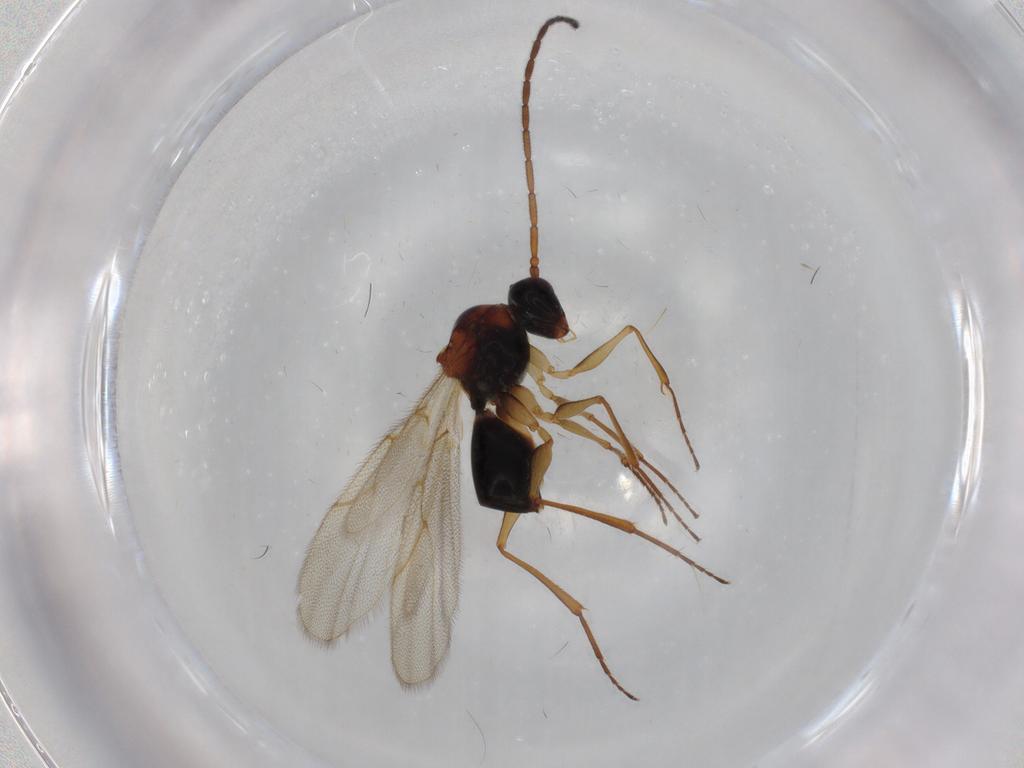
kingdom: Animalia
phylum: Arthropoda
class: Insecta
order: Hymenoptera
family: Figitidae
